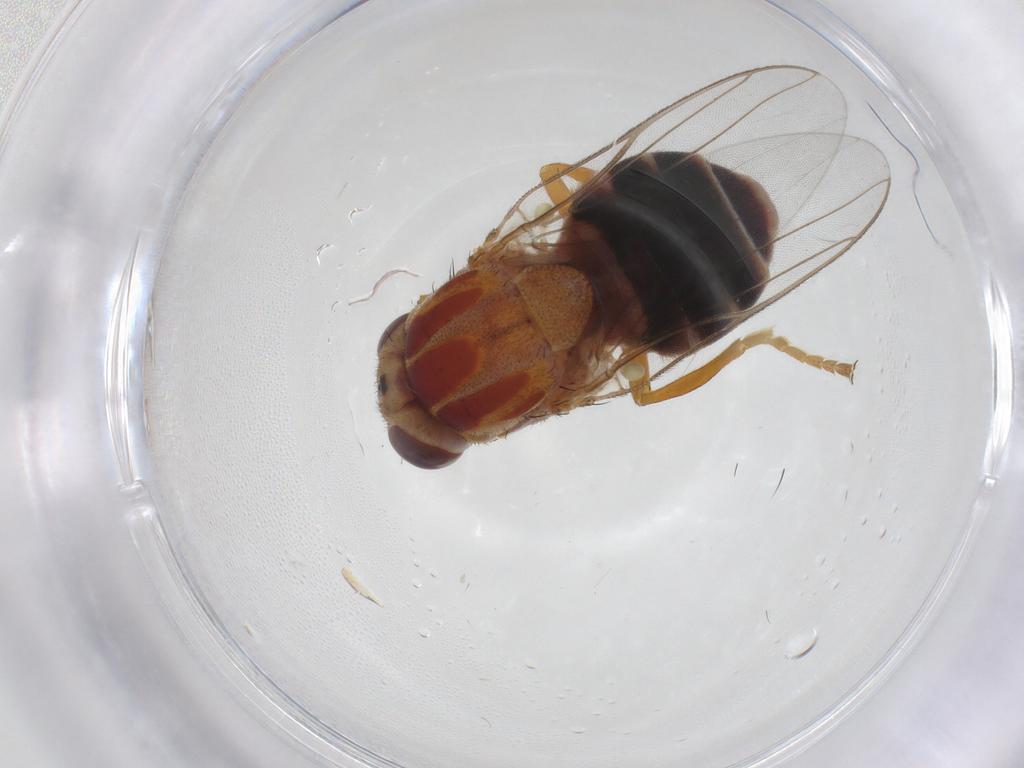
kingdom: Animalia
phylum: Arthropoda
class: Insecta
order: Diptera
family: Chloropidae
